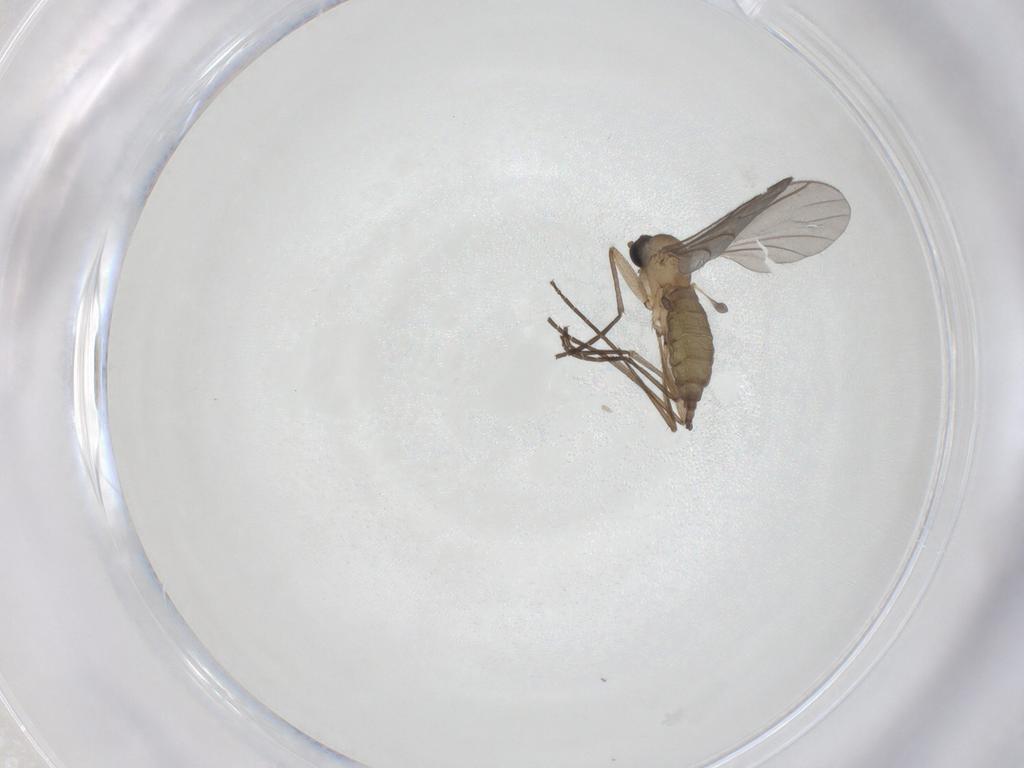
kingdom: Animalia
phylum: Arthropoda
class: Insecta
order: Diptera
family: Sciaridae
